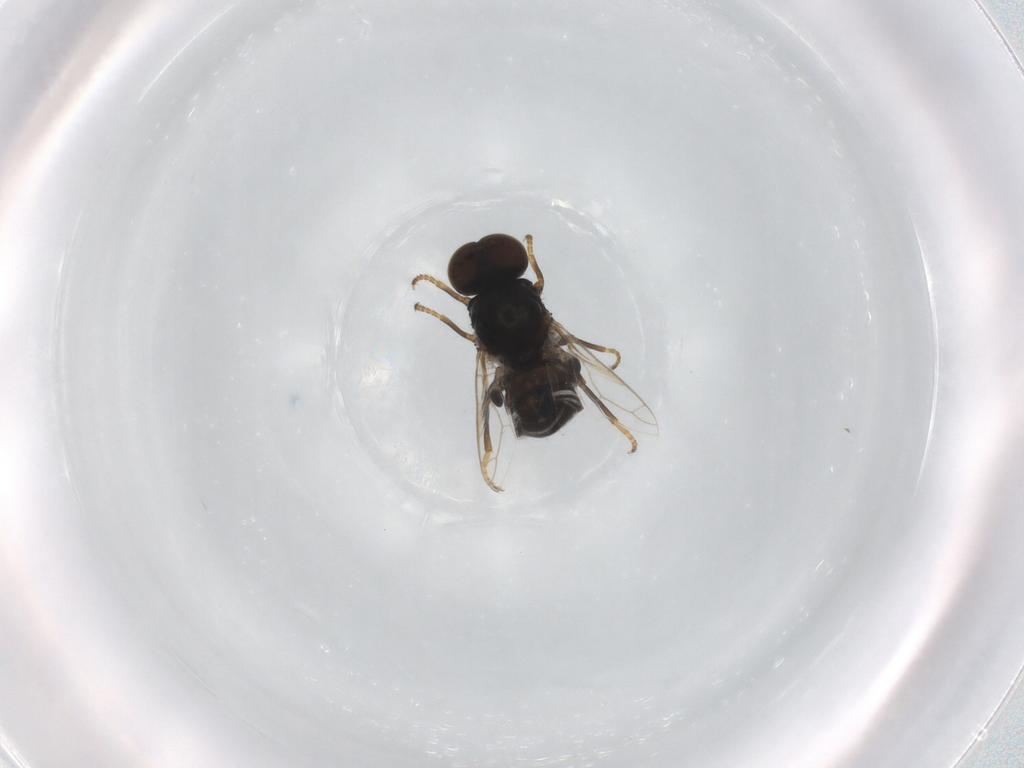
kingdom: Animalia
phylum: Arthropoda
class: Insecta
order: Diptera
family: Scenopinidae
